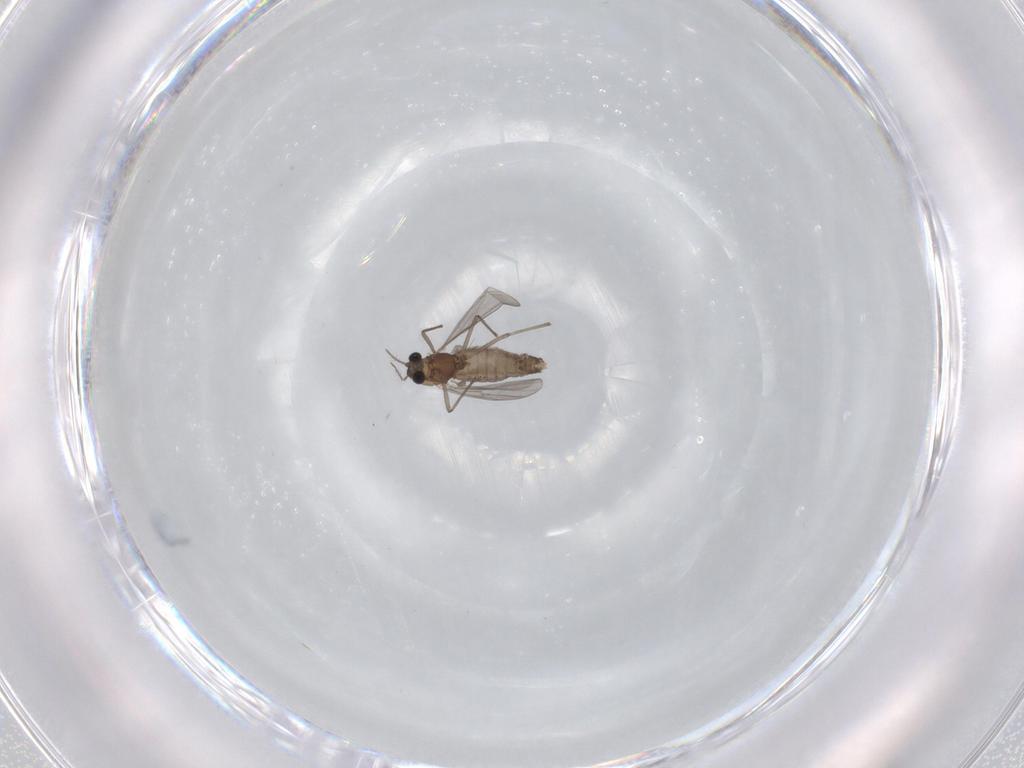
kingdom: Animalia
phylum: Arthropoda
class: Insecta
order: Diptera
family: Chironomidae
